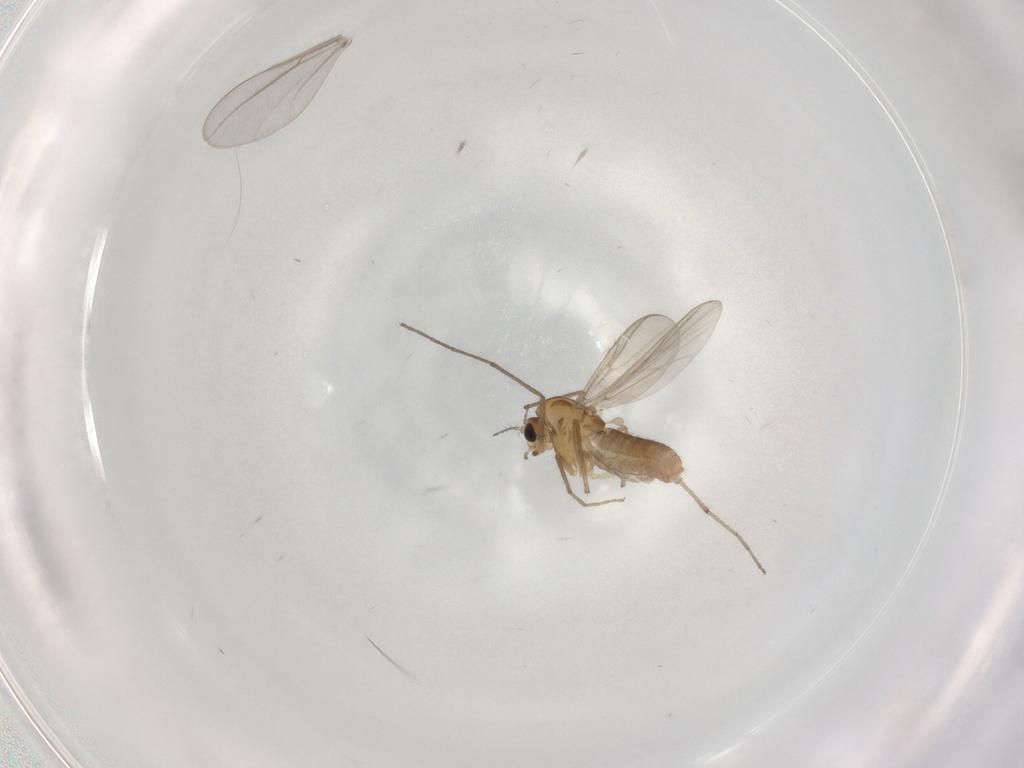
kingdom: Animalia
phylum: Arthropoda
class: Insecta
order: Diptera
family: Chironomidae
